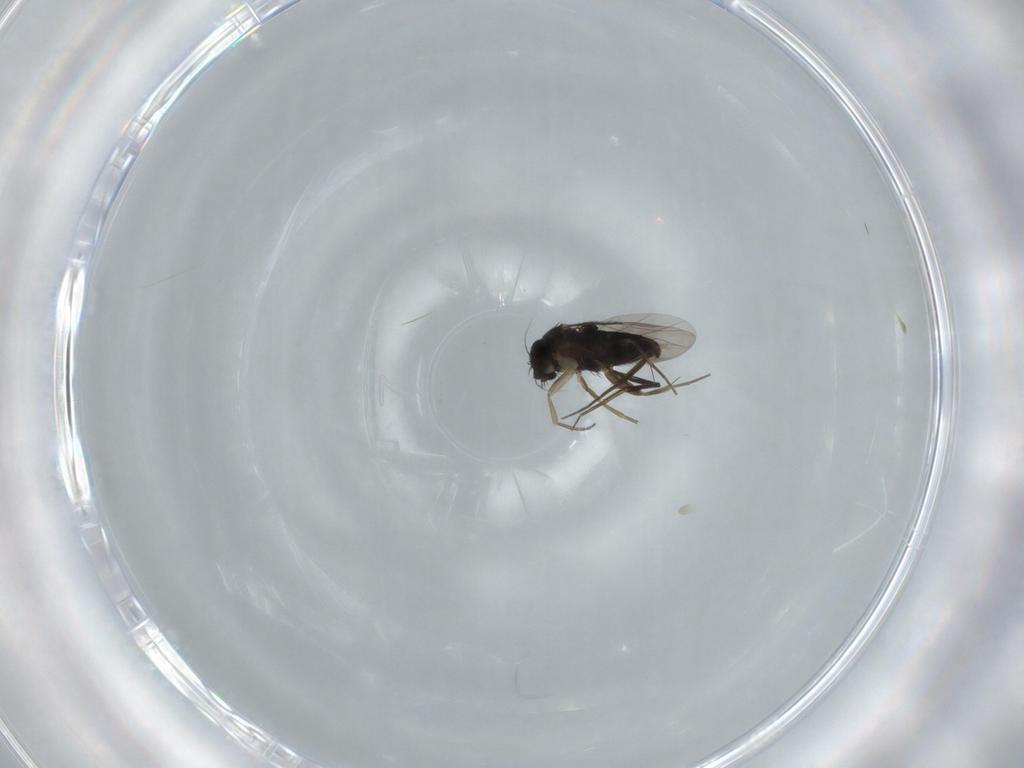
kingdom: Animalia
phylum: Arthropoda
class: Insecta
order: Diptera
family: Phoridae
